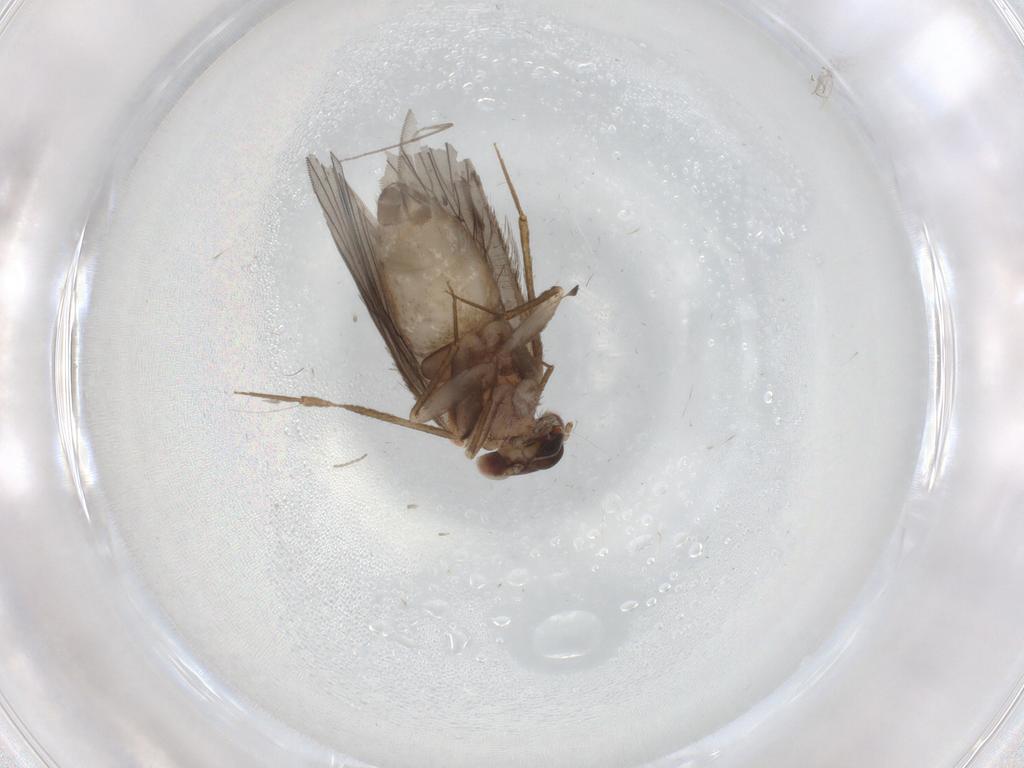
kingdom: Animalia
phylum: Arthropoda
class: Insecta
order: Psocodea
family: Lepidopsocidae
